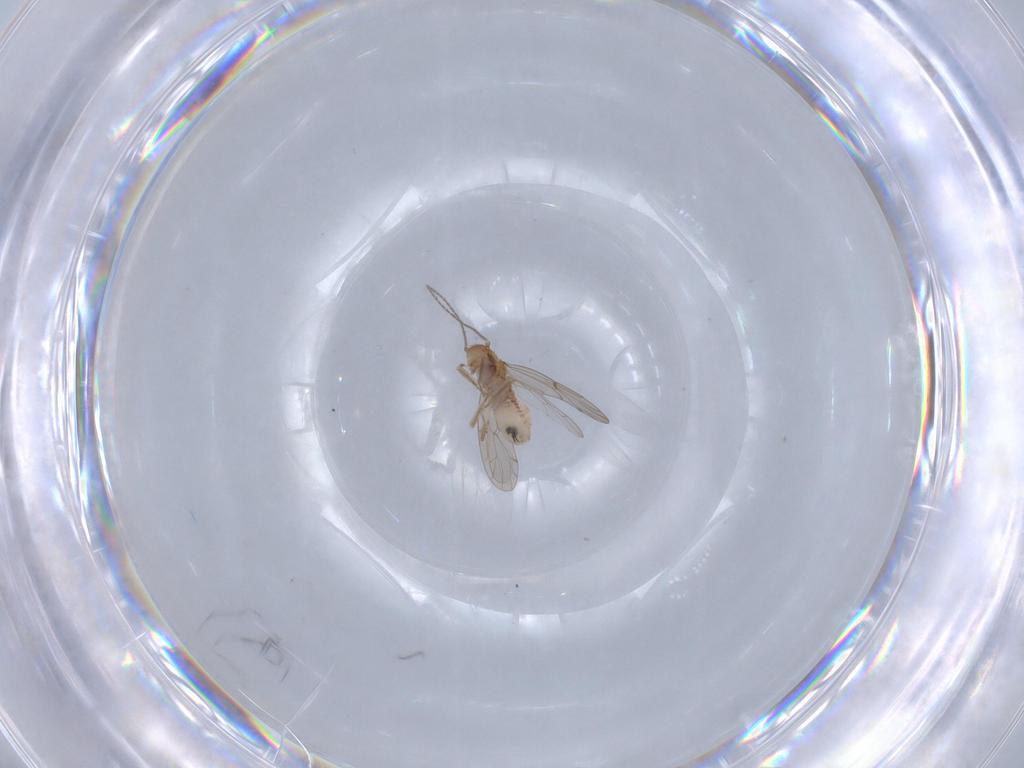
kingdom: Animalia
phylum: Arthropoda
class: Insecta
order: Psocodea
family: Ectopsocidae
